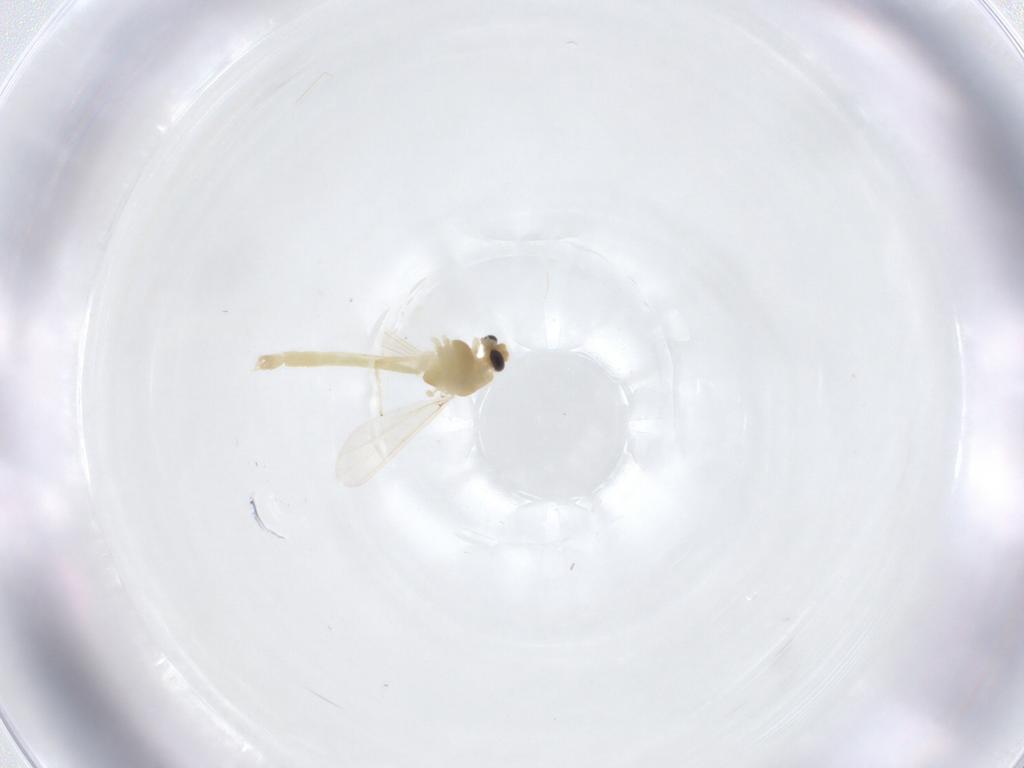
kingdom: Animalia
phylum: Arthropoda
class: Insecta
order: Diptera
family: Chironomidae
